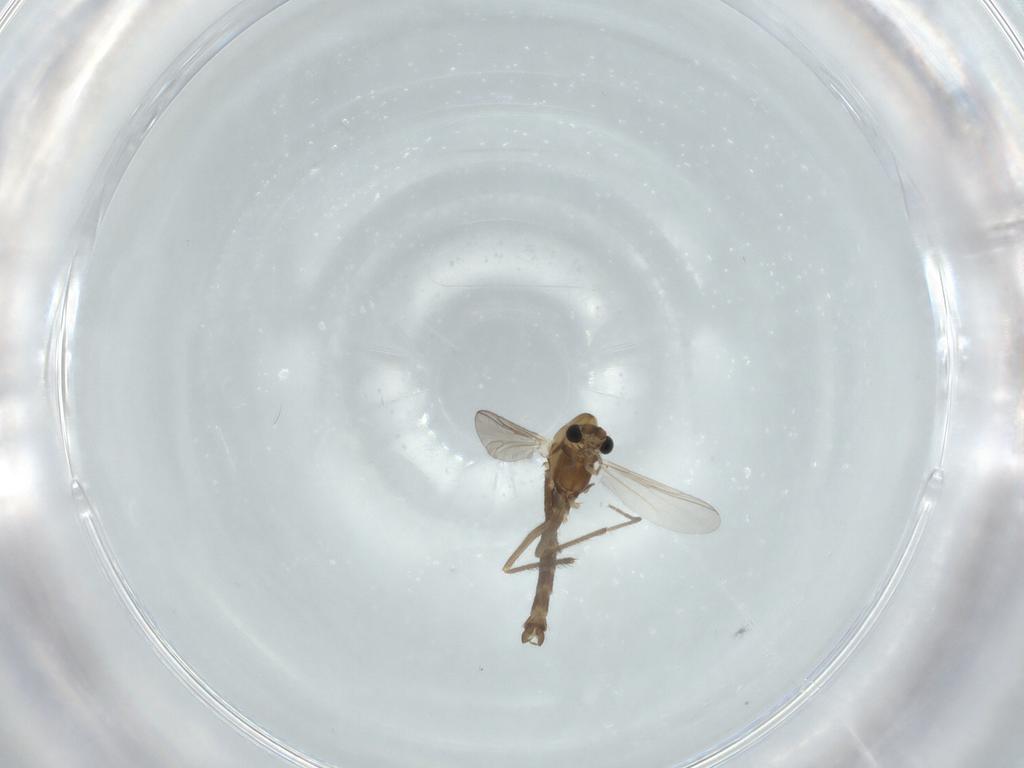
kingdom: Animalia
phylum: Arthropoda
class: Insecta
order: Diptera
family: Chironomidae
